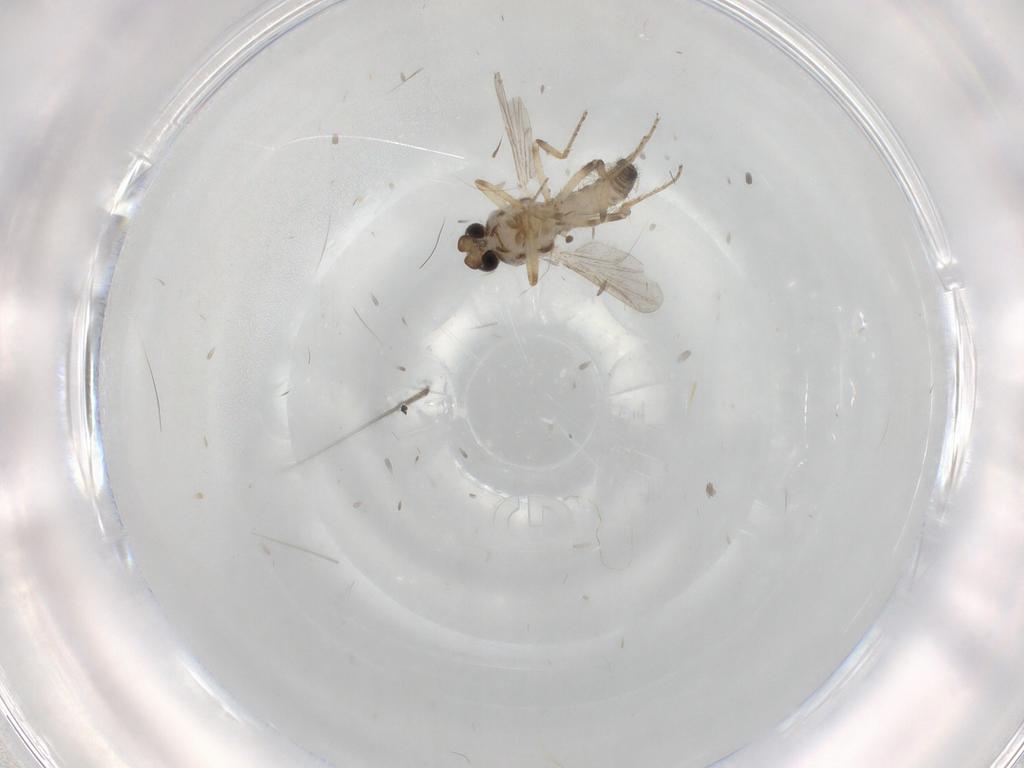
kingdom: Animalia
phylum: Arthropoda
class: Insecta
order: Diptera
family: Ceratopogonidae
